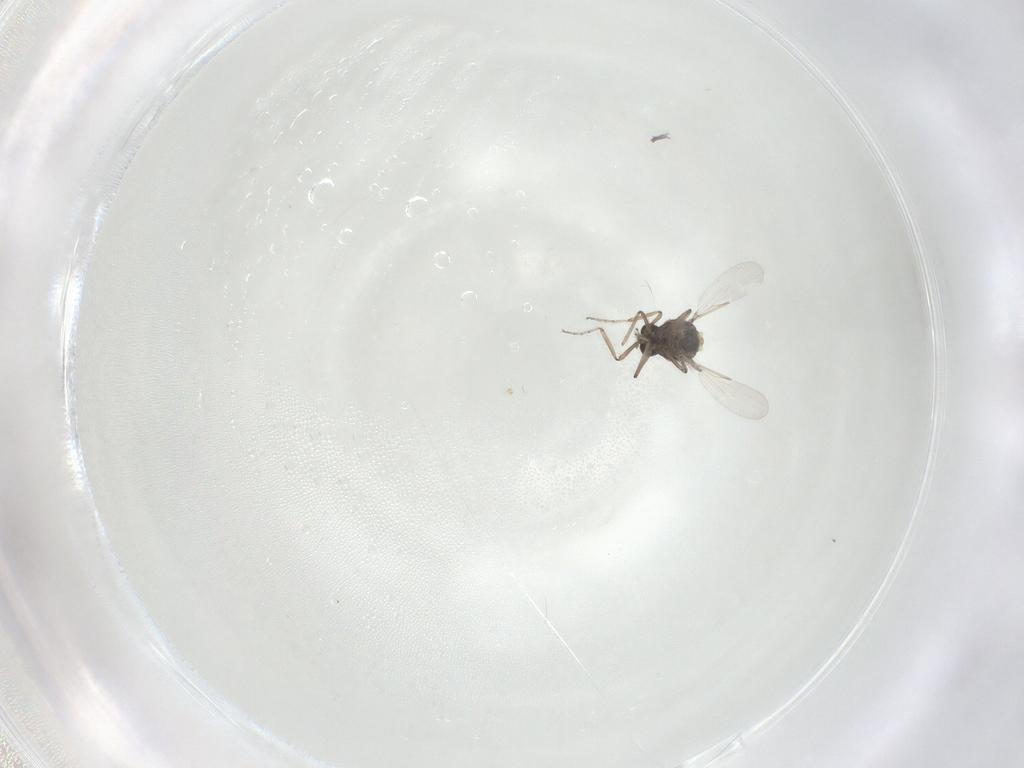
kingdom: Animalia
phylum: Arthropoda
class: Insecta
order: Diptera
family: Ceratopogonidae
